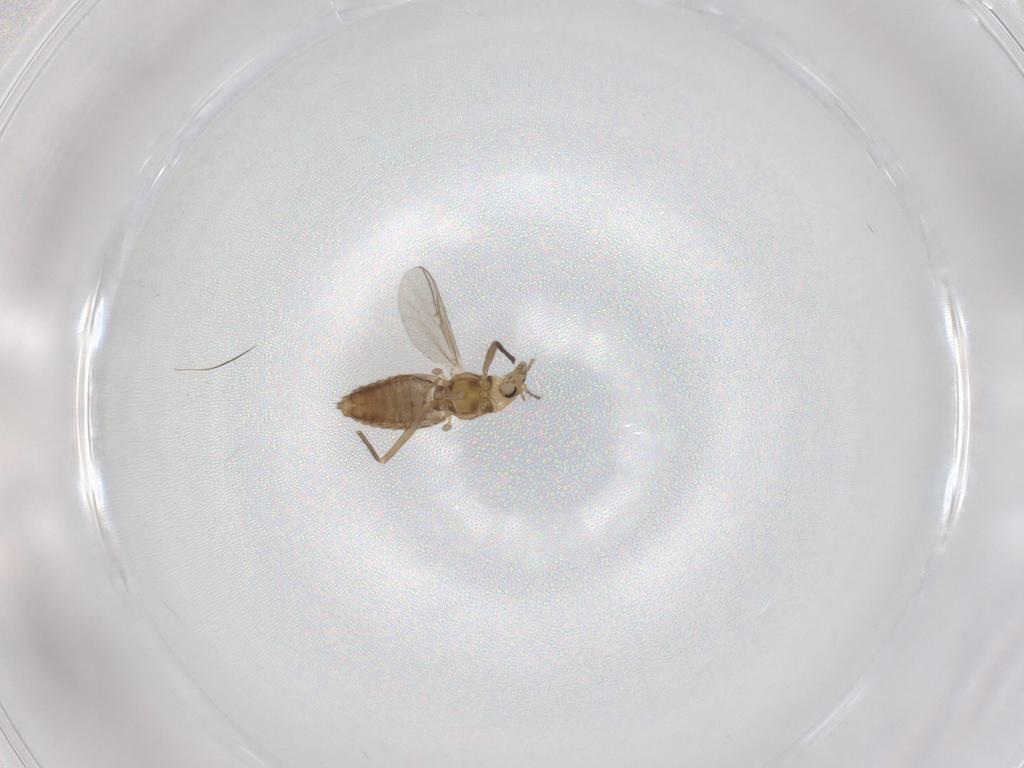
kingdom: Animalia
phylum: Arthropoda
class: Insecta
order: Diptera
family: Chironomidae
